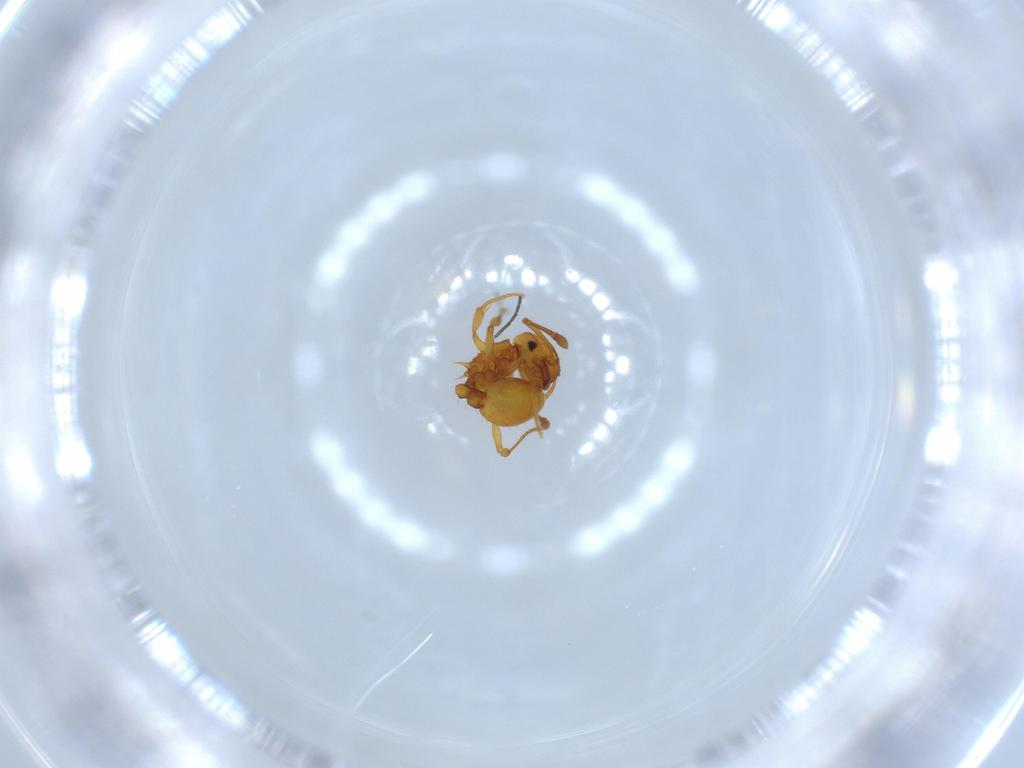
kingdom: Animalia
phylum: Arthropoda
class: Insecta
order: Hymenoptera
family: Formicidae
